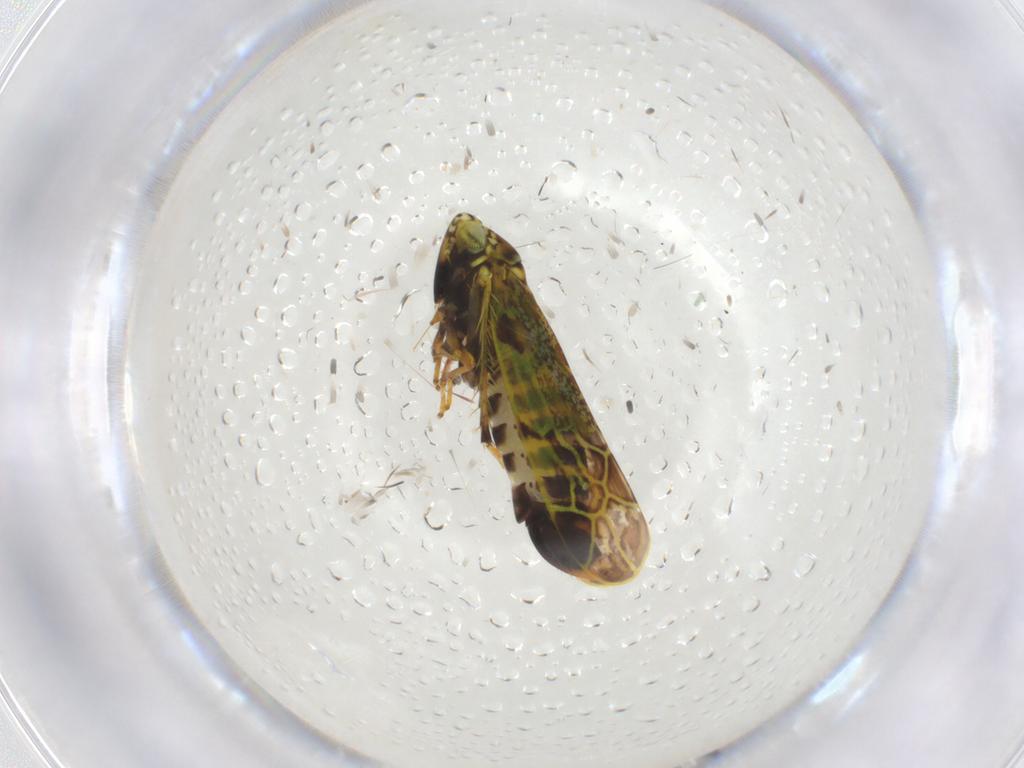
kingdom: Animalia
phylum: Arthropoda
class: Insecta
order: Hemiptera
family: Cicadellidae
